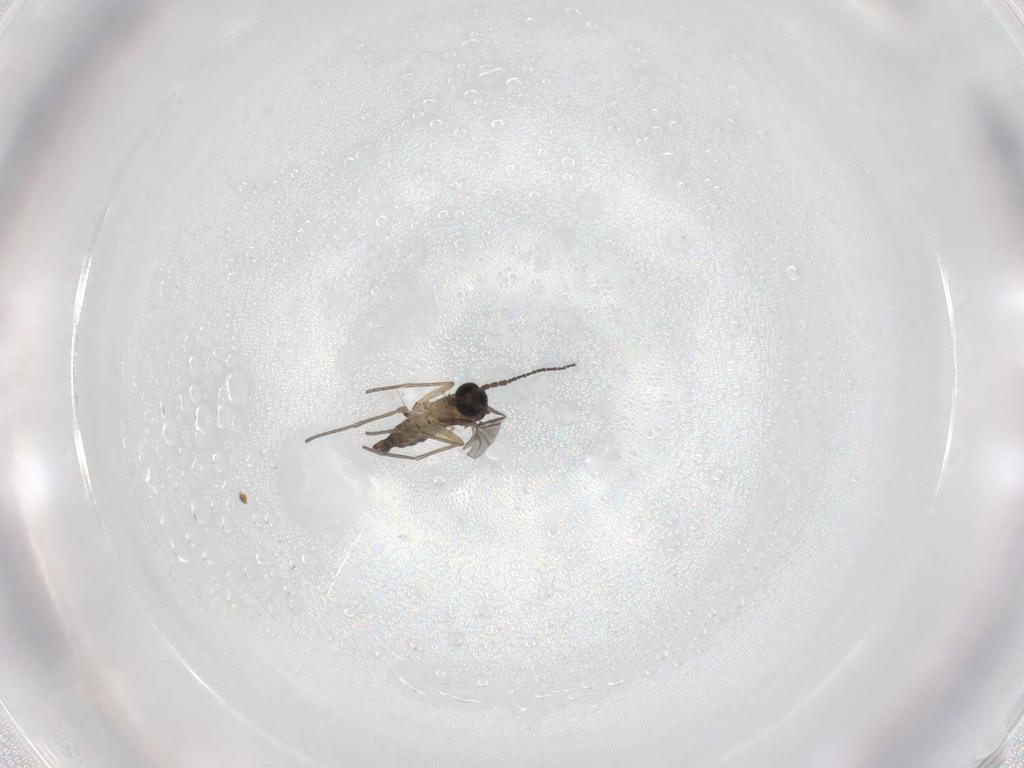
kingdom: Animalia
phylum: Arthropoda
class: Insecta
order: Diptera
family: Sciaridae
